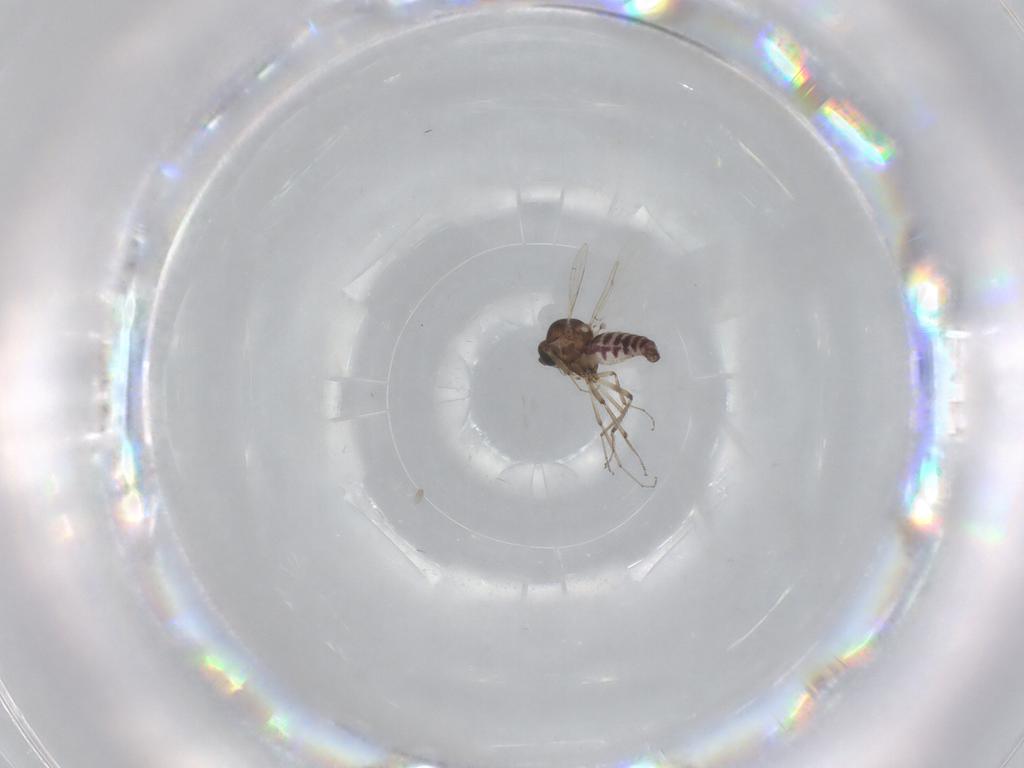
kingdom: Animalia
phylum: Arthropoda
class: Insecta
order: Diptera
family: Ceratopogonidae
